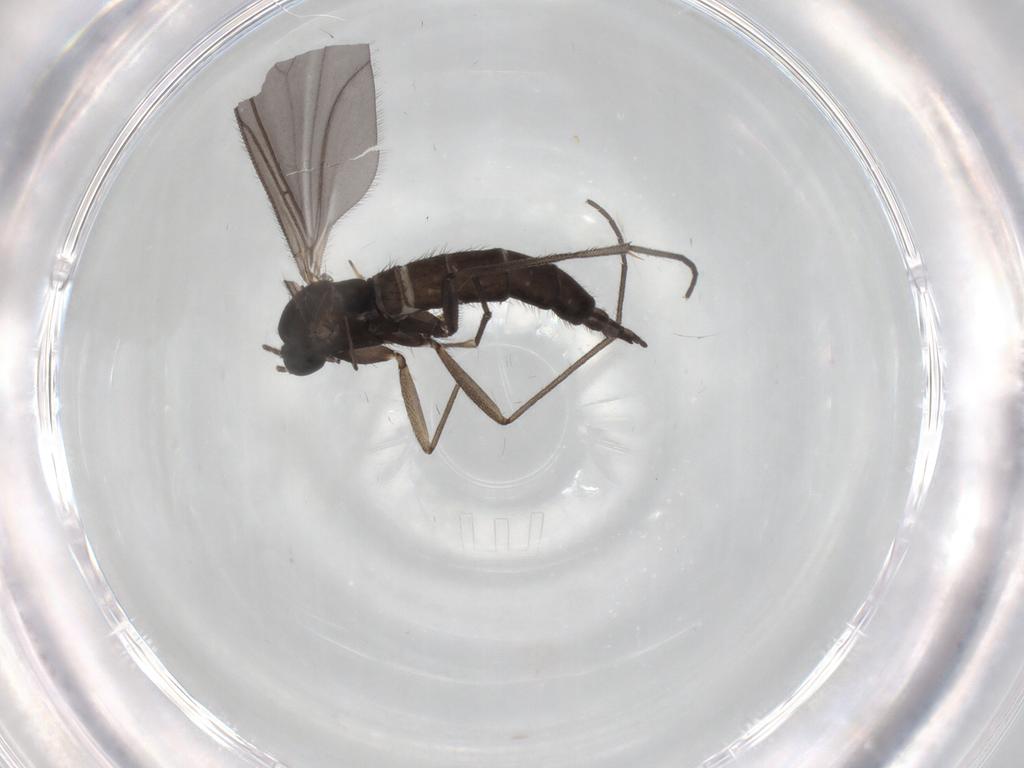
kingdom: Animalia
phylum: Arthropoda
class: Insecta
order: Diptera
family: Sciaridae
